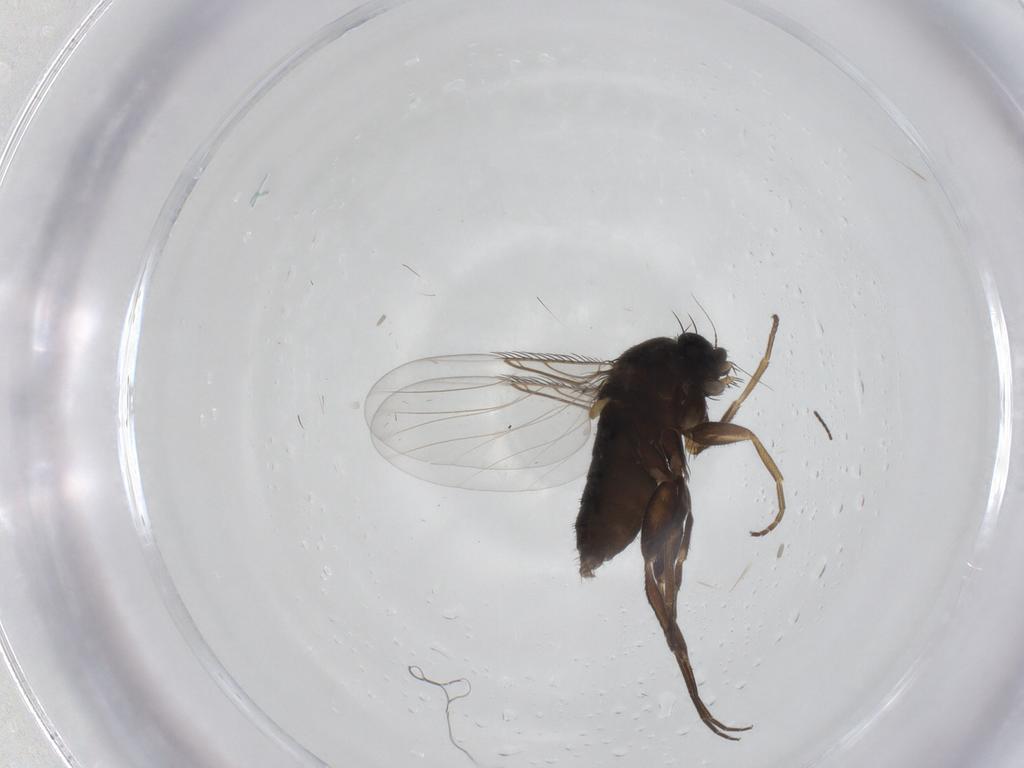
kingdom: Animalia
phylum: Arthropoda
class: Insecta
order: Diptera
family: Phoridae
